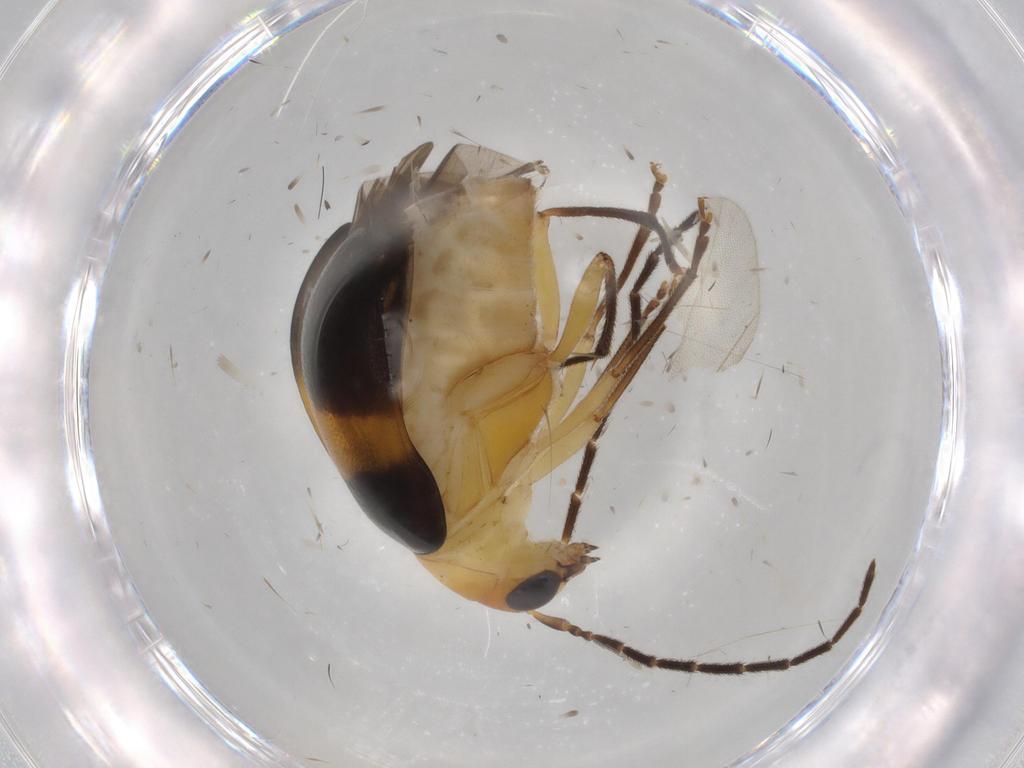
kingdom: Animalia
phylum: Arthropoda
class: Insecta
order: Coleoptera
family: Chrysomelidae
